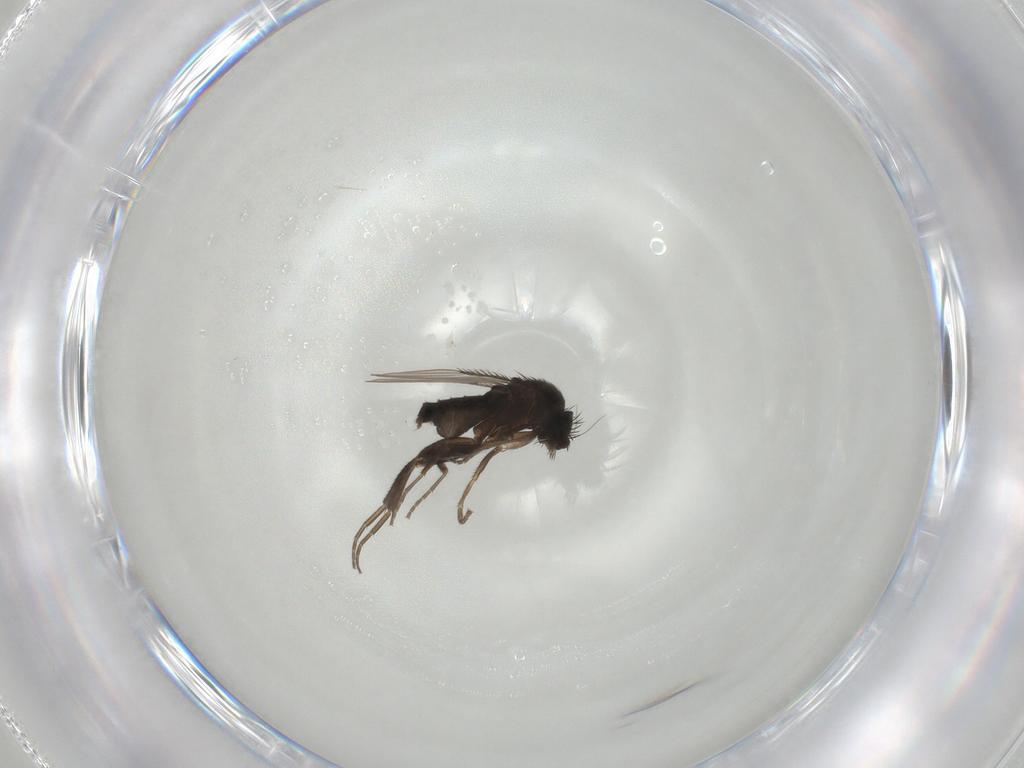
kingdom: Animalia
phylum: Arthropoda
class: Insecta
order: Diptera
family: Phoridae
